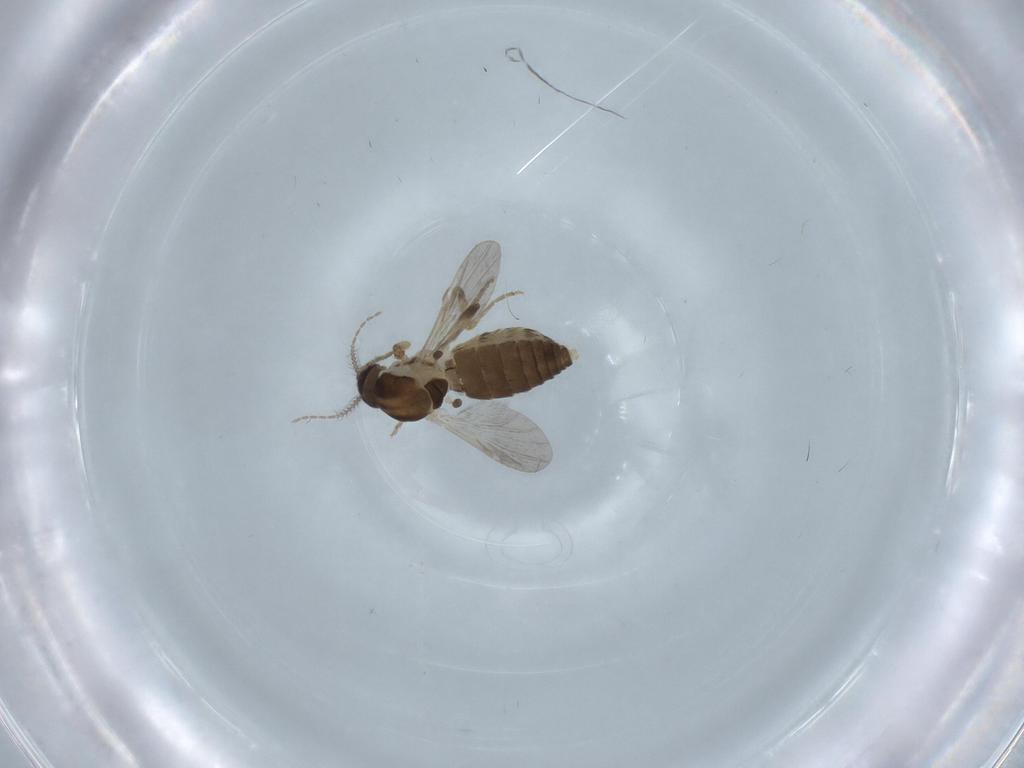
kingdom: Animalia
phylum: Arthropoda
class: Insecta
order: Diptera
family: Ceratopogonidae
